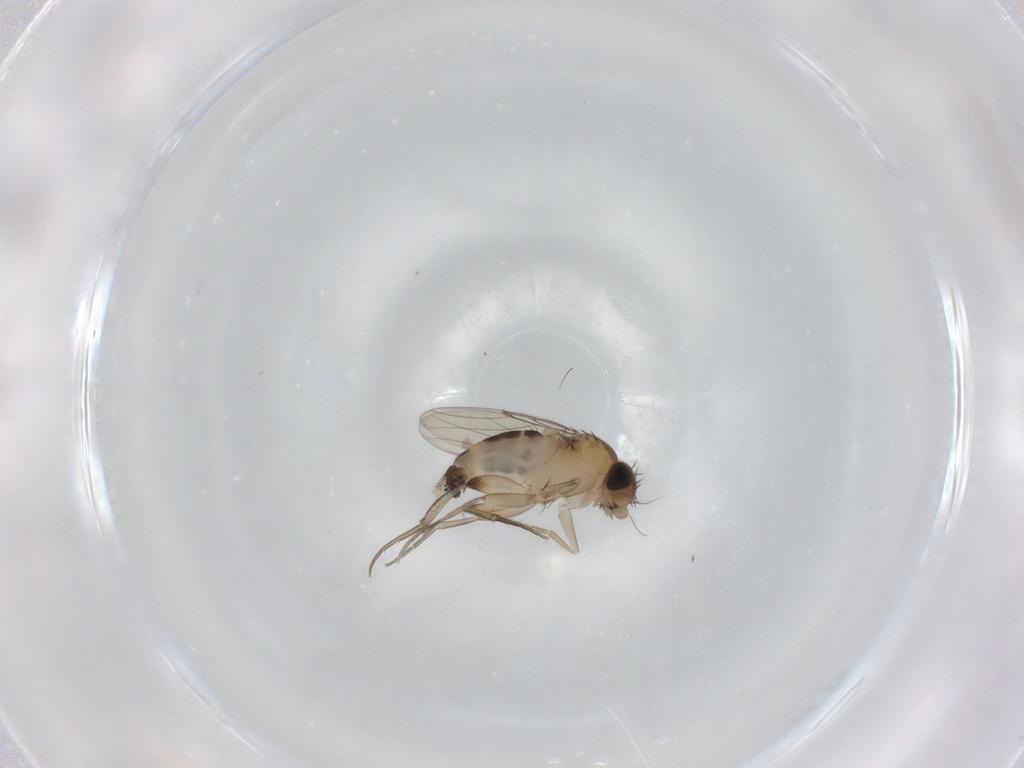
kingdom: Animalia
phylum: Arthropoda
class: Insecta
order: Diptera
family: Phoridae
